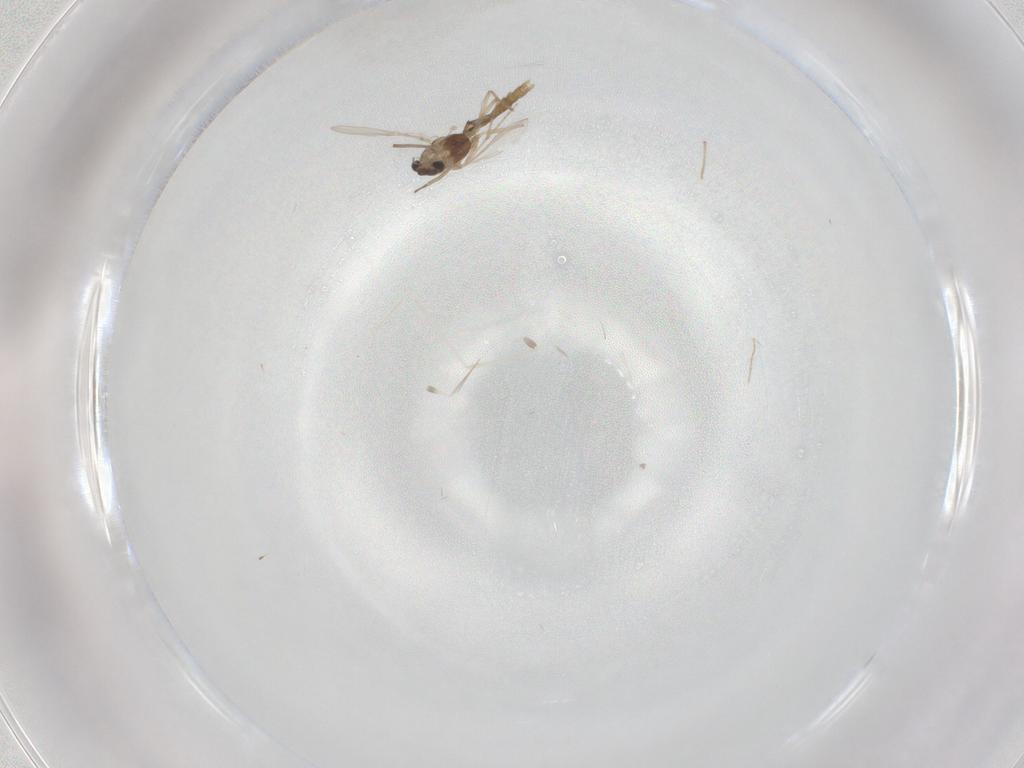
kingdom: Animalia
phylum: Arthropoda
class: Insecta
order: Diptera
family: Chironomidae
